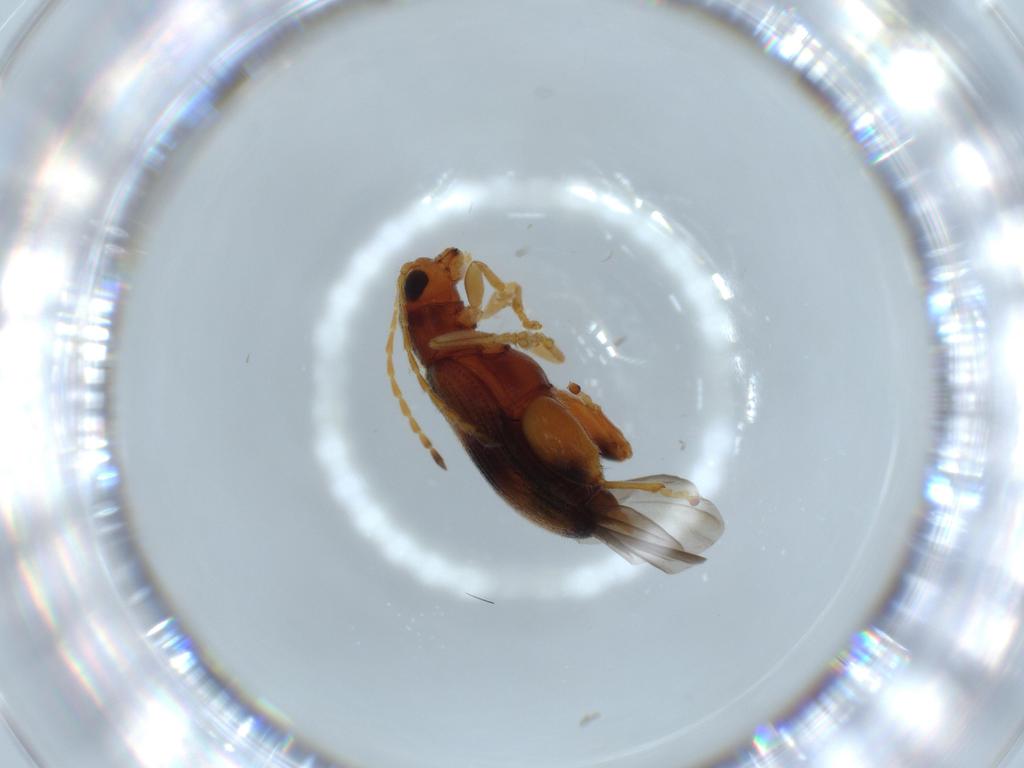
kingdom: Animalia
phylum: Arthropoda
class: Insecta
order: Coleoptera
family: Chrysomelidae
